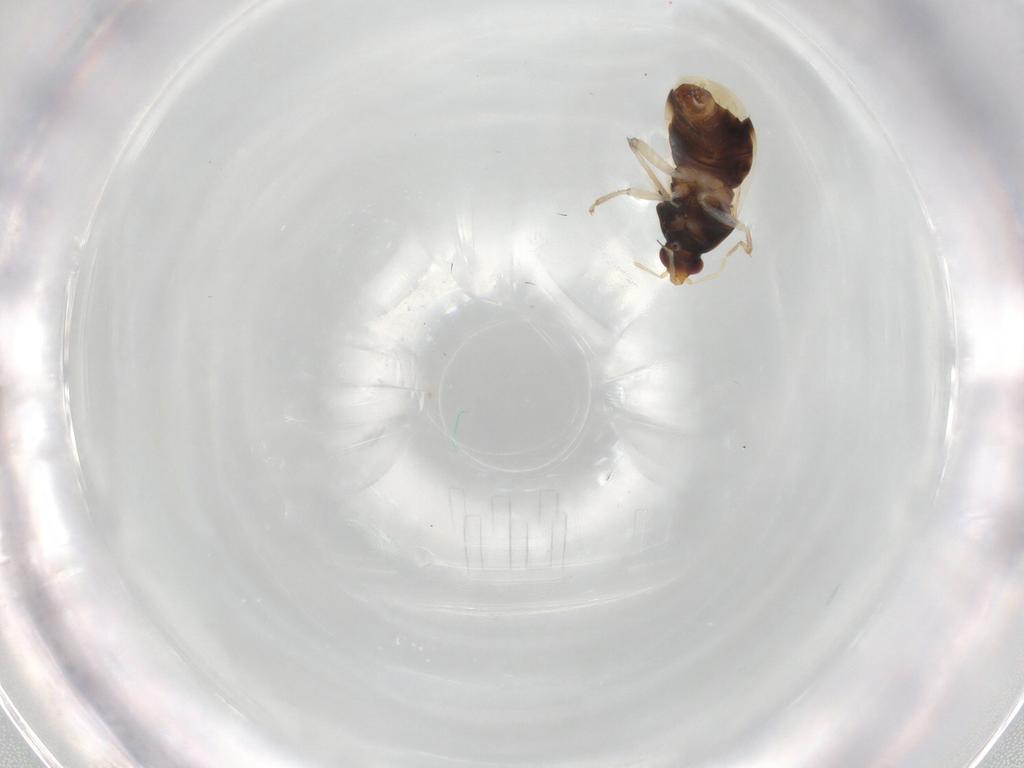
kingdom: Animalia
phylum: Arthropoda
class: Insecta
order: Hemiptera
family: Anthocoridae
